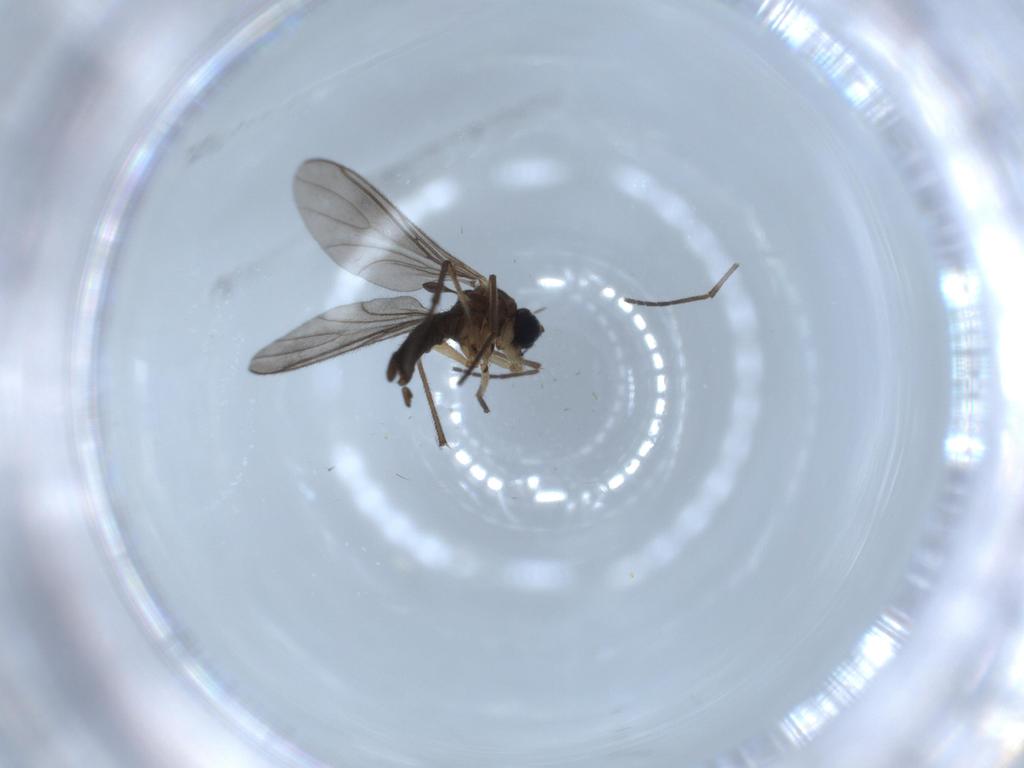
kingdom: Animalia
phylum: Arthropoda
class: Insecta
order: Diptera
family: Sciaridae
